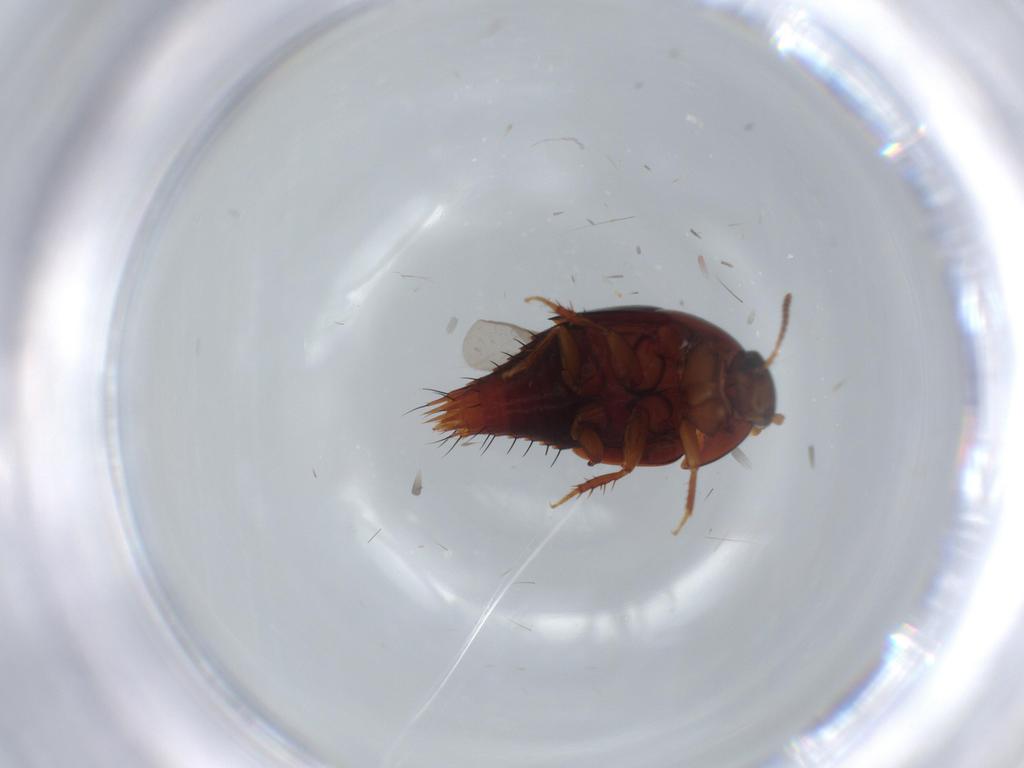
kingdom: Animalia
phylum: Arthropoda
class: Insecta
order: Coleoptera
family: Staphylinidae
